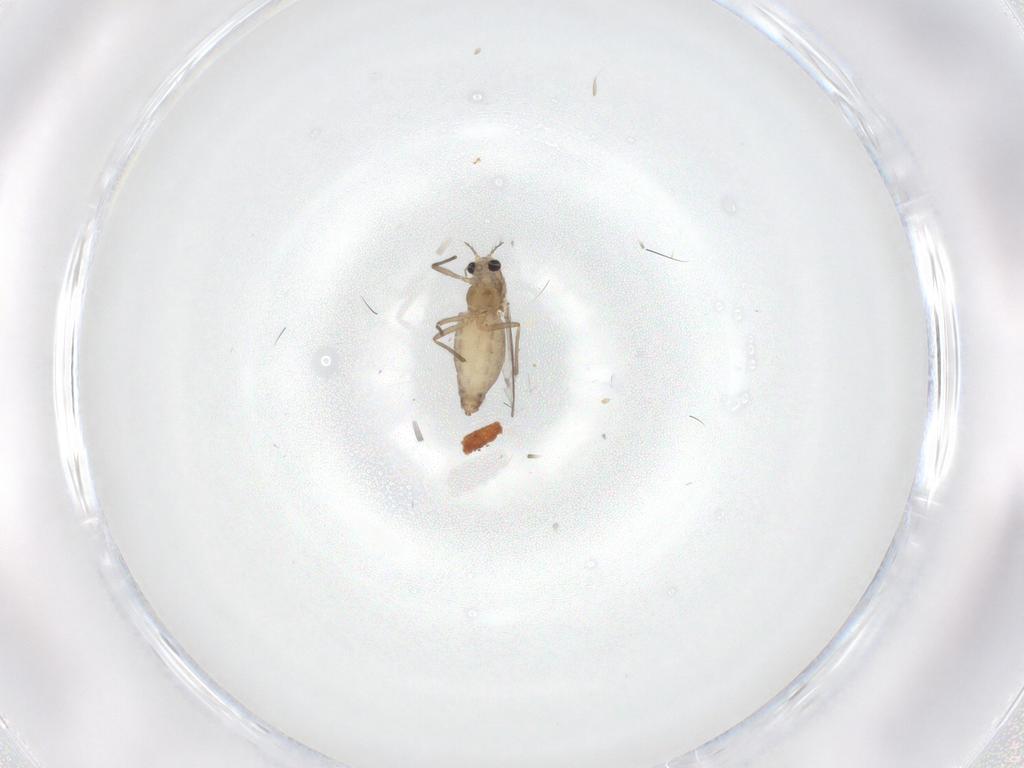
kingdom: Animalia
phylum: Arthropoda
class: Insecta
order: Diptera
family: Chironomidae
